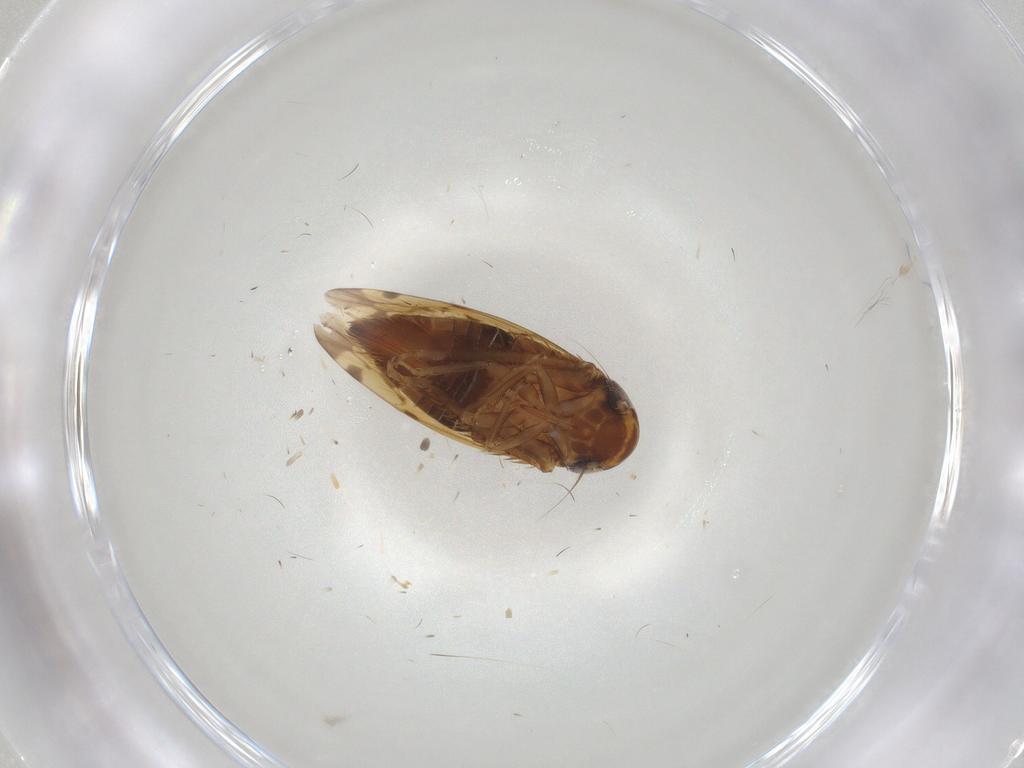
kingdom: Animalia
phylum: Arthropoda
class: Insecta
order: Hemiptera
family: Cicadellidae
